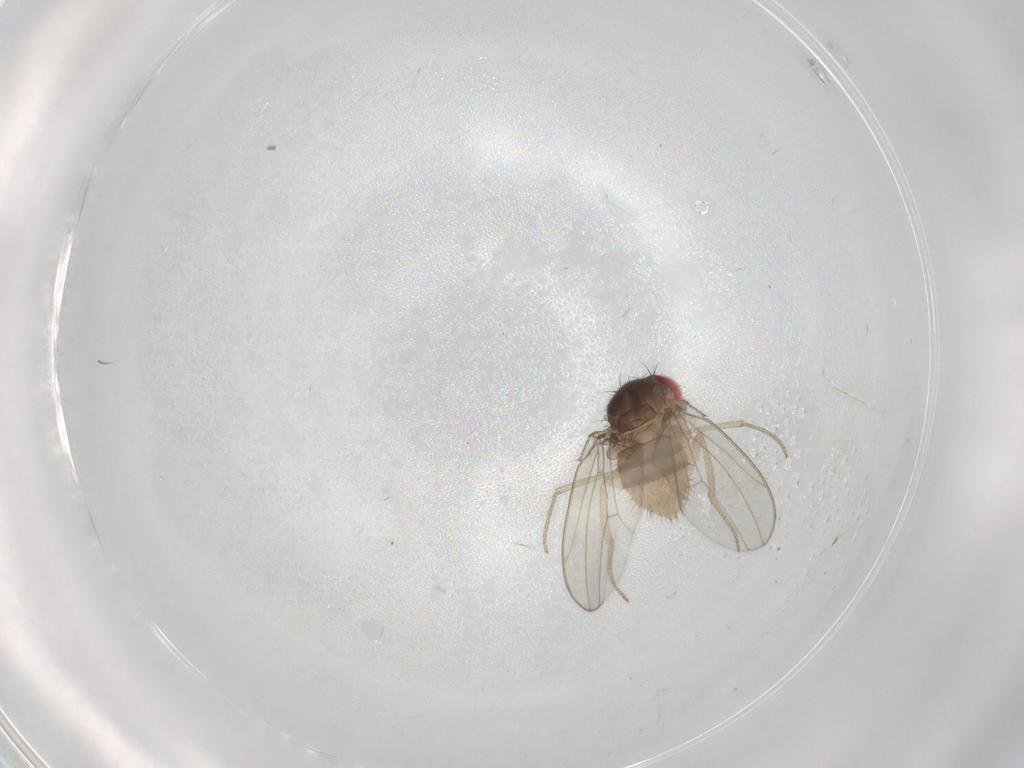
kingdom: Animalia
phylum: Arthropoda
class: Insecta
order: Diptera
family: Drosophilidae
